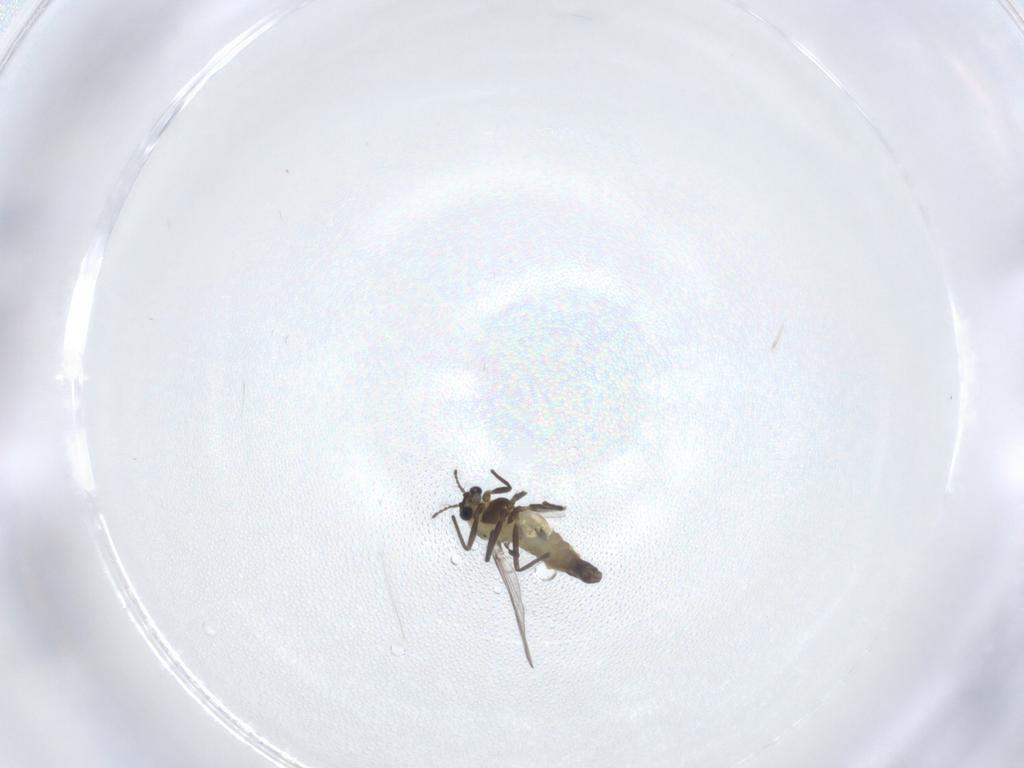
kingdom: Animalia
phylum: Arthropoda
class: Insecta
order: Diptera
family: Chironomidae
